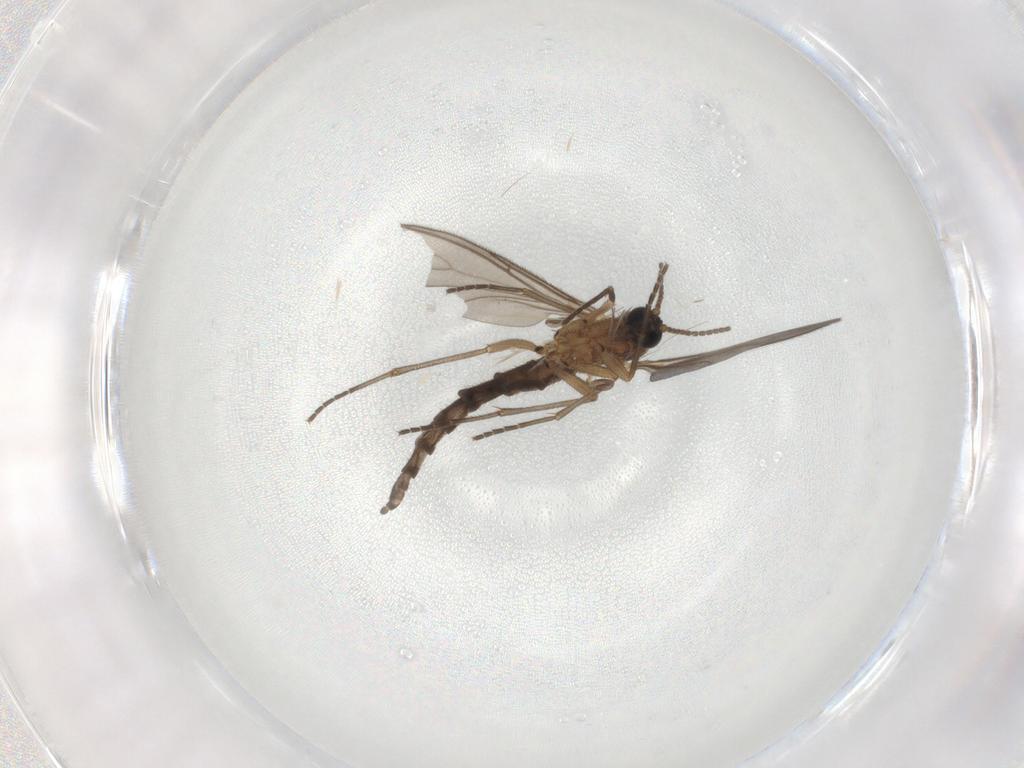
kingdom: Animalia
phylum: Arthropoda
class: Insecta
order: Diptera
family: Sciaridae
